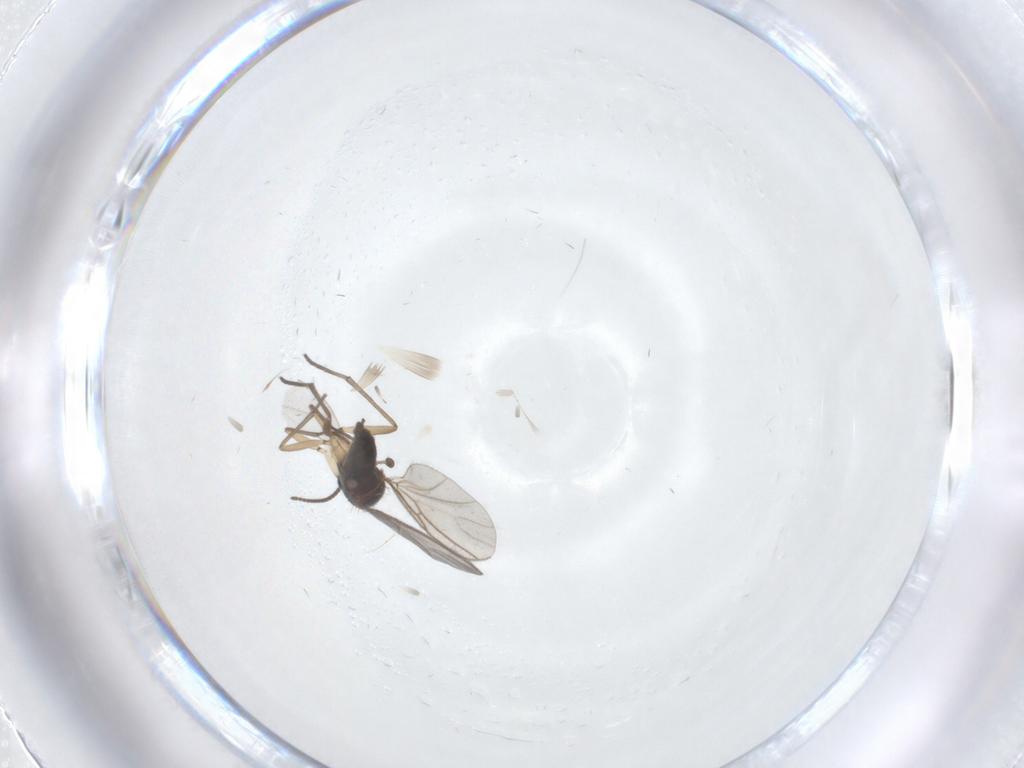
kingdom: Animalia
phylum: Arthropoda
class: Insecta
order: Diptera
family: Sciaridae
